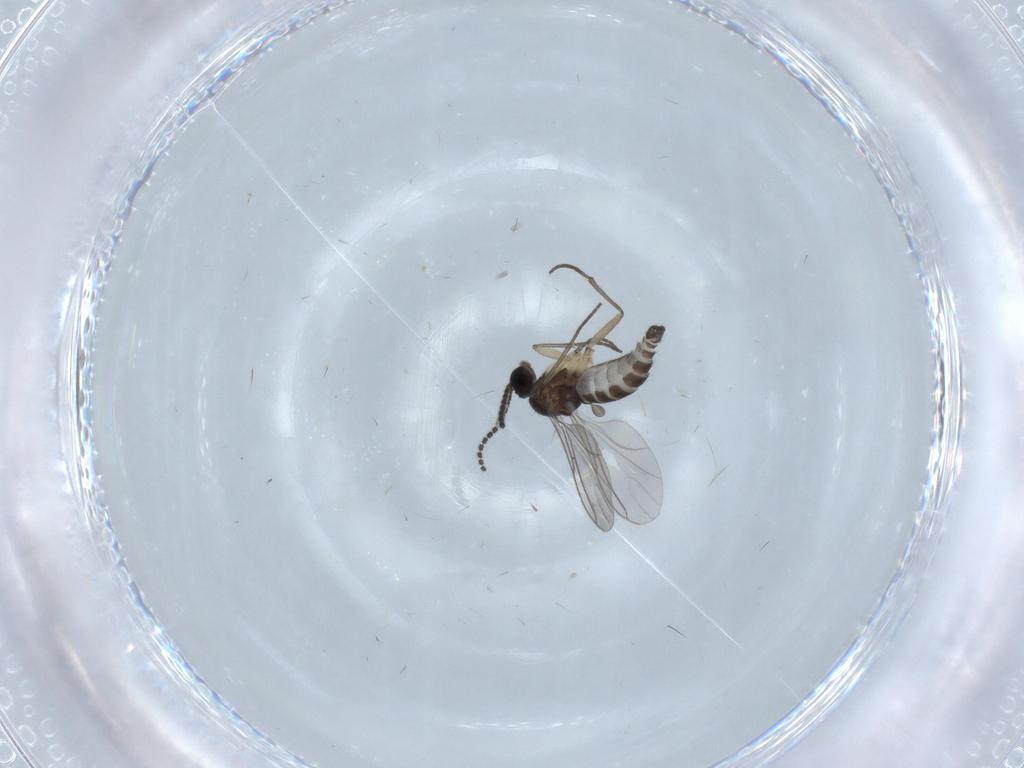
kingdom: Animalia
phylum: Arthropoda
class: Insecta
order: Diptera
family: Sciaridae
